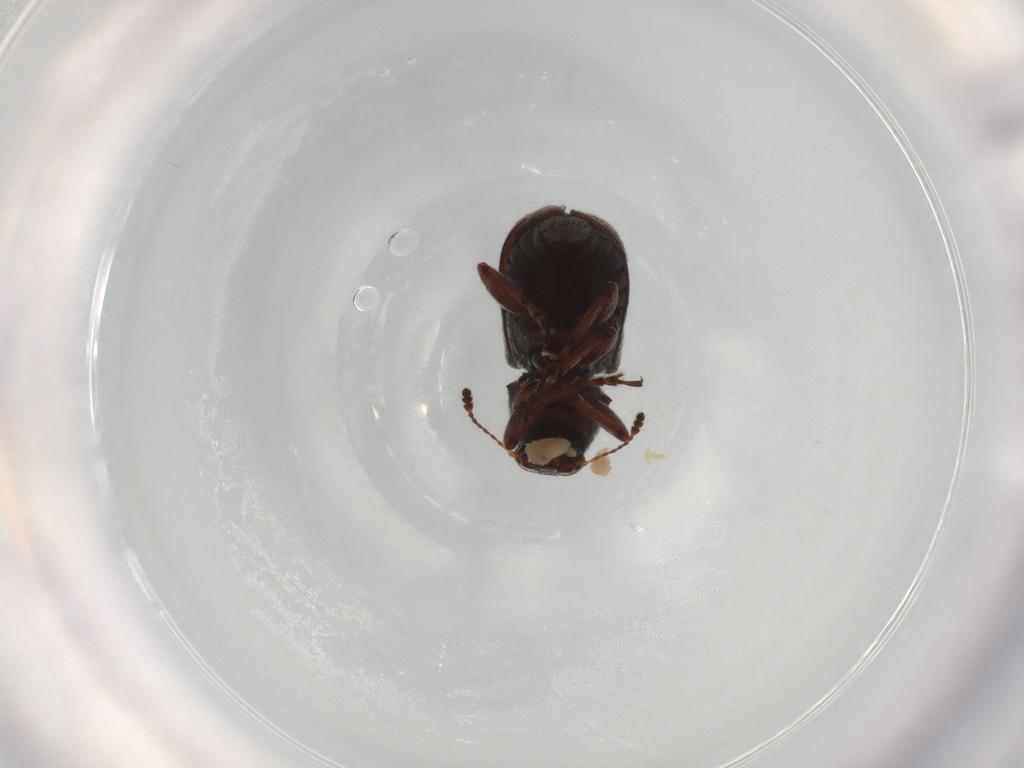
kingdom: Animalia
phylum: Arthropoda
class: Insecta
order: Coleoptera
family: Anthribidae
